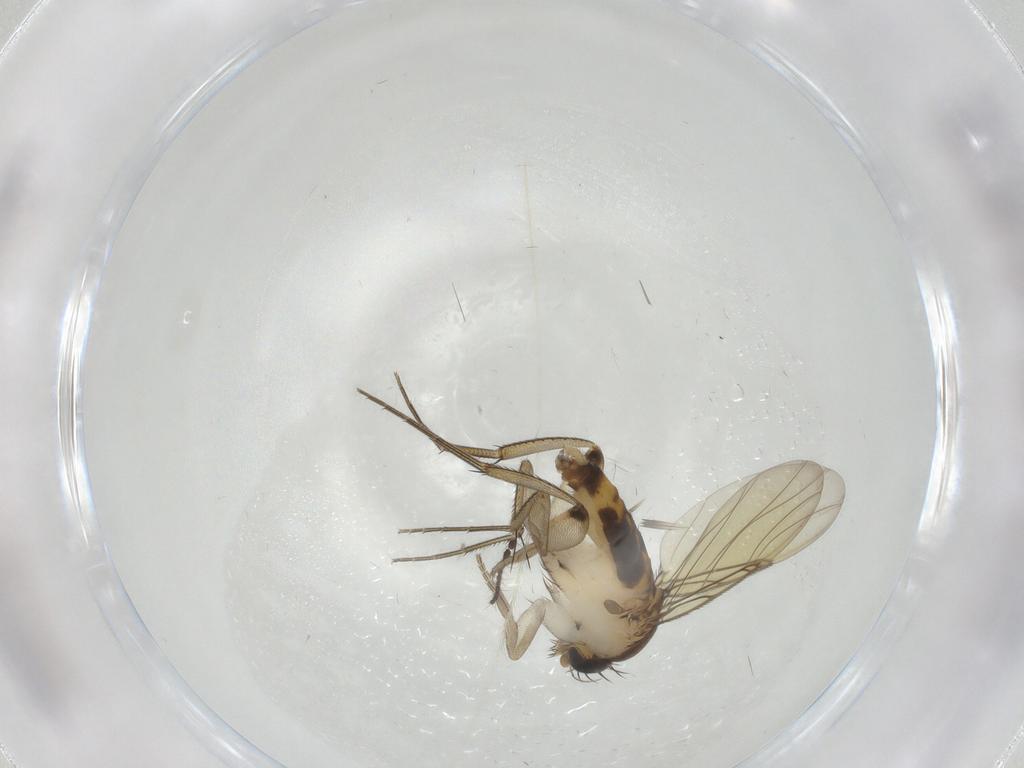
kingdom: Animalia
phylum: Arthropoda
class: Insecta
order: Diptera
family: Phoridae
